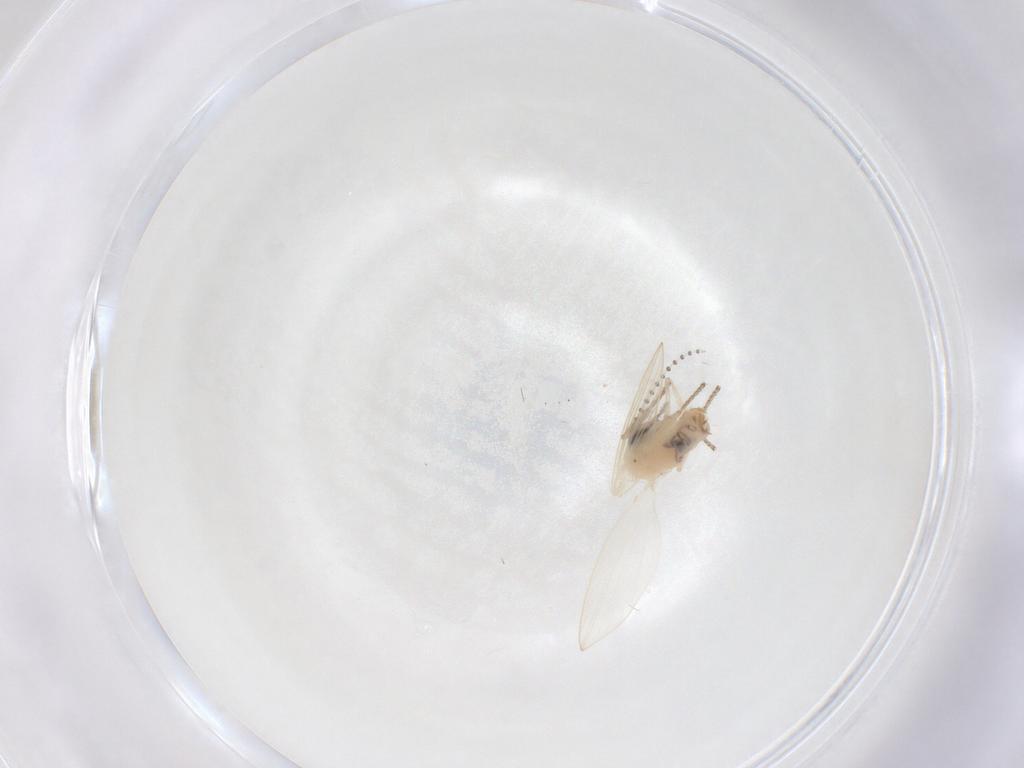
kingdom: Animalia
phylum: Arthropoda
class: Insecta
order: Diptera
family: Psychodidae
